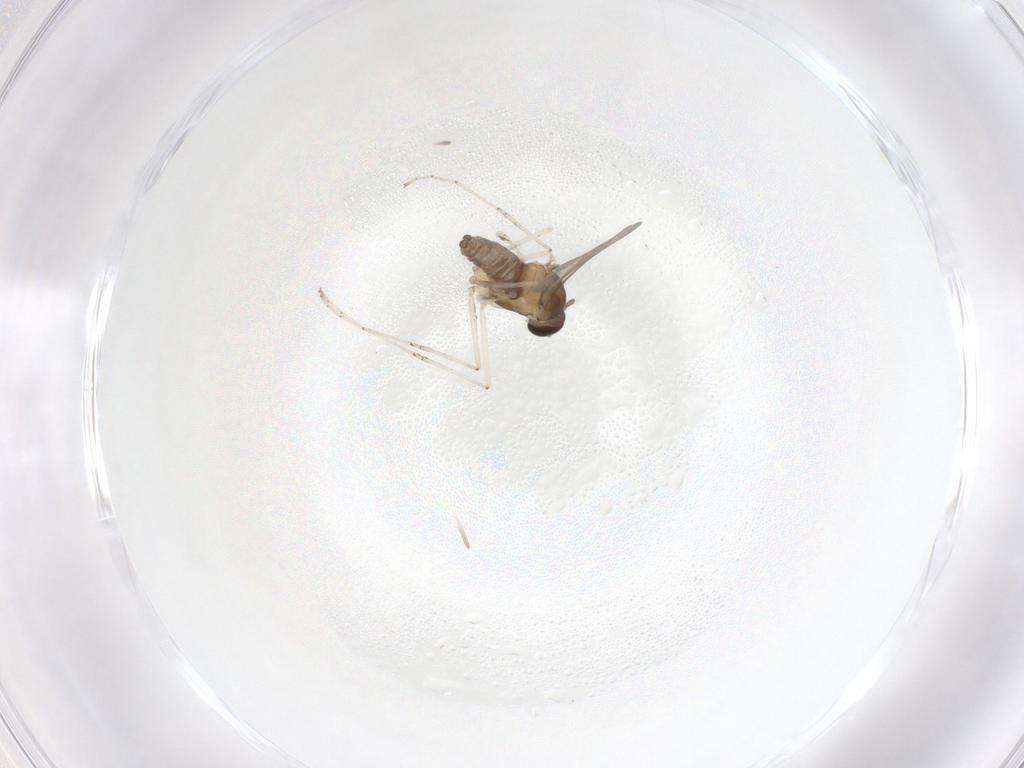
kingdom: Animalia
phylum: Arthropoda
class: Insecta
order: Diptera
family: Cecidomyiidae
